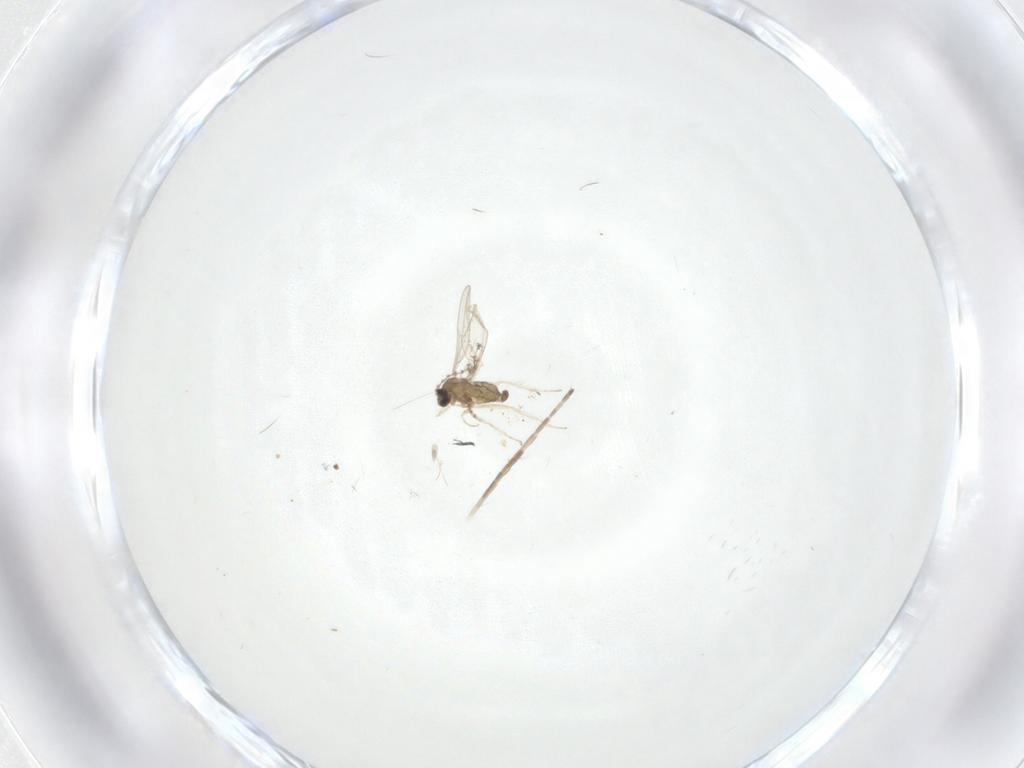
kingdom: Animalia
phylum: Arthropoda
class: Insecta
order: Diptera
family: Cecidomyiidae
